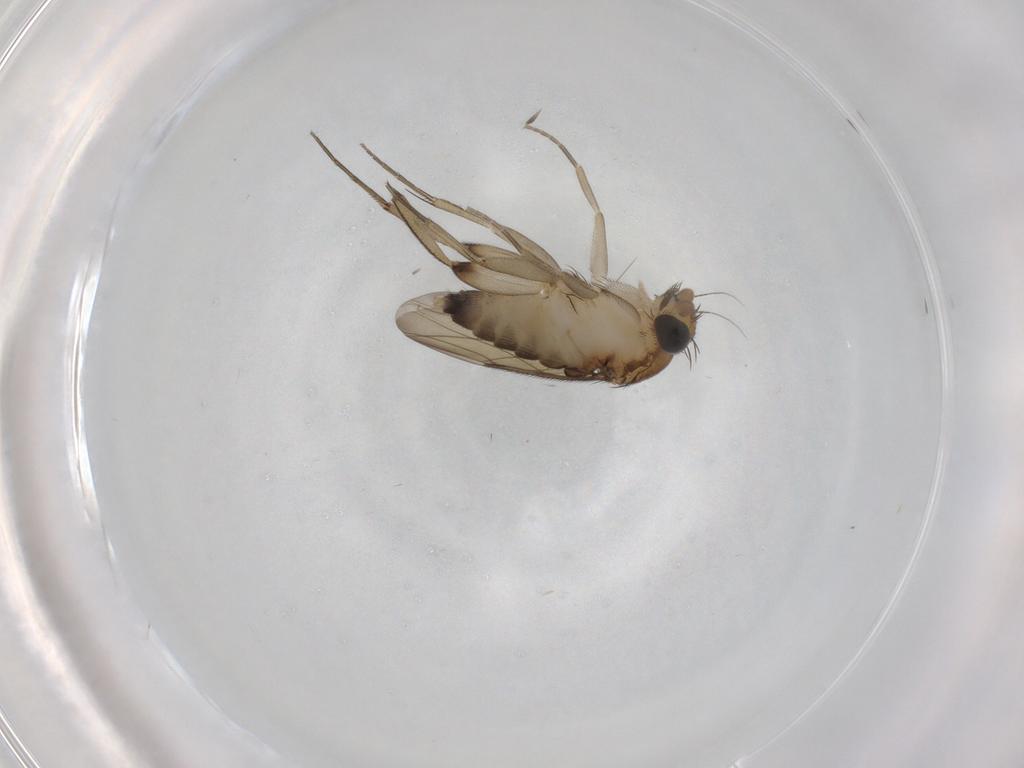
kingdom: Animalia
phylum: Arthropoda
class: Insecta
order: Diptera
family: Phoridae
